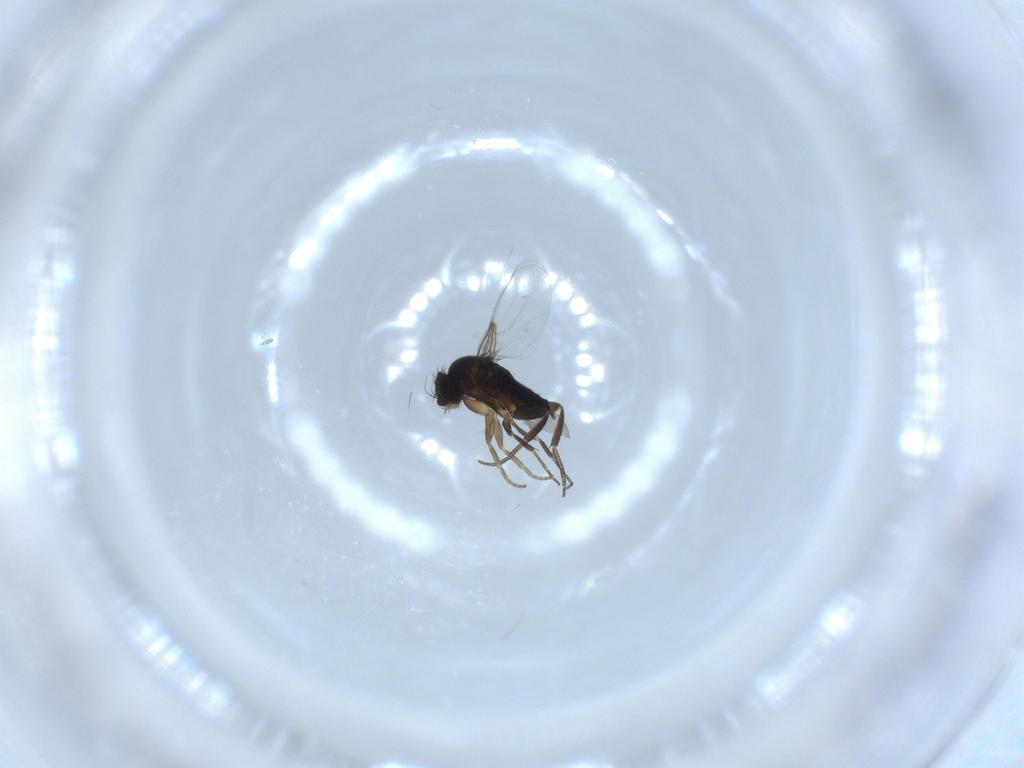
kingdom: Animalia
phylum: Arthropoda
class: Insecta
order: Diptera
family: Phoridae
